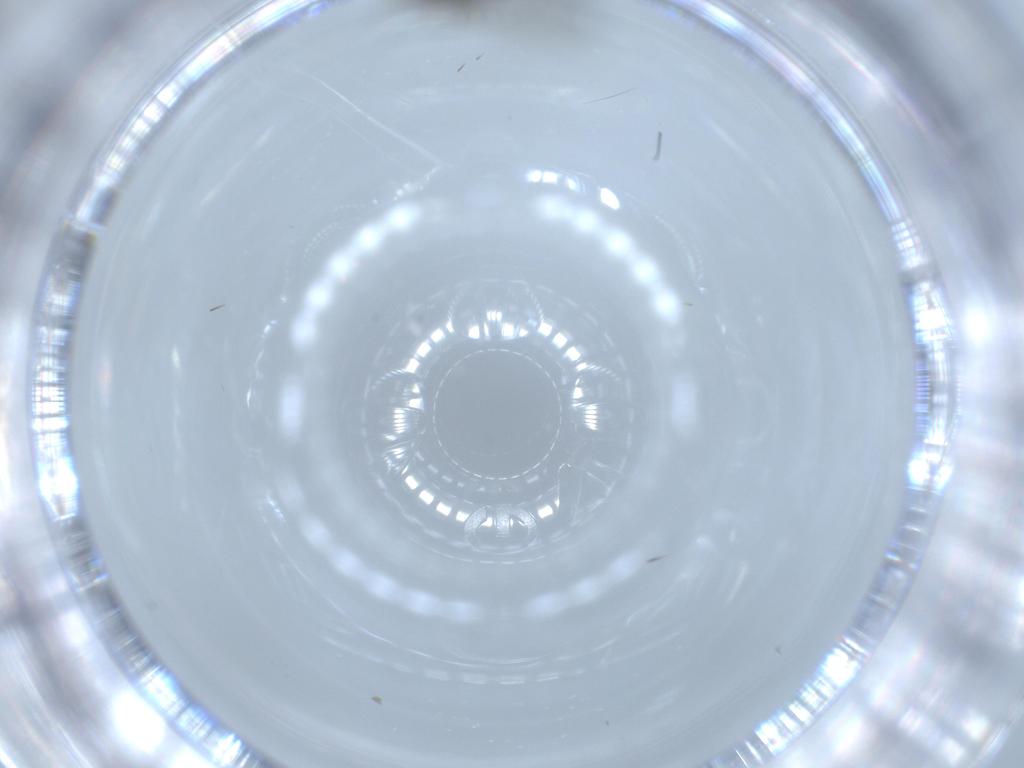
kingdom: Animalia
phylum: Arthropoda
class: Insecta
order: Diptera
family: Sciaridae
